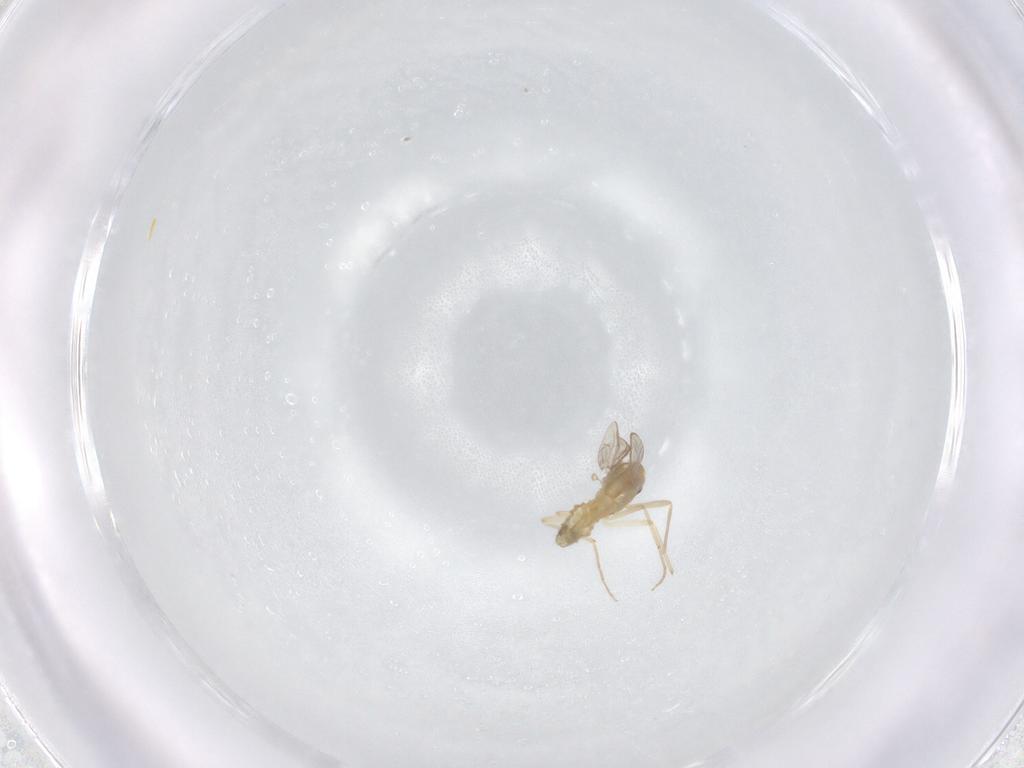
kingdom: Animalia
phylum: Arthropoda
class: Insecta
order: Diptera
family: Chironomidae
